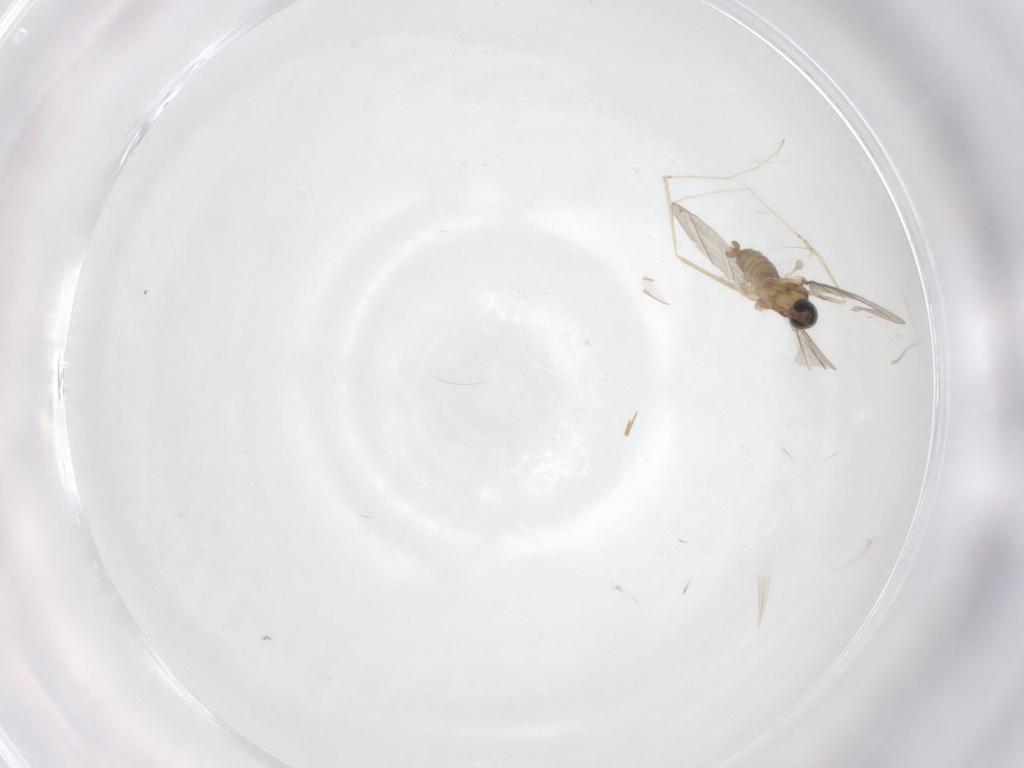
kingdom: Animalia
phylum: Arthropoda
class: Insecta
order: Diptera
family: Cecidomyiidae
